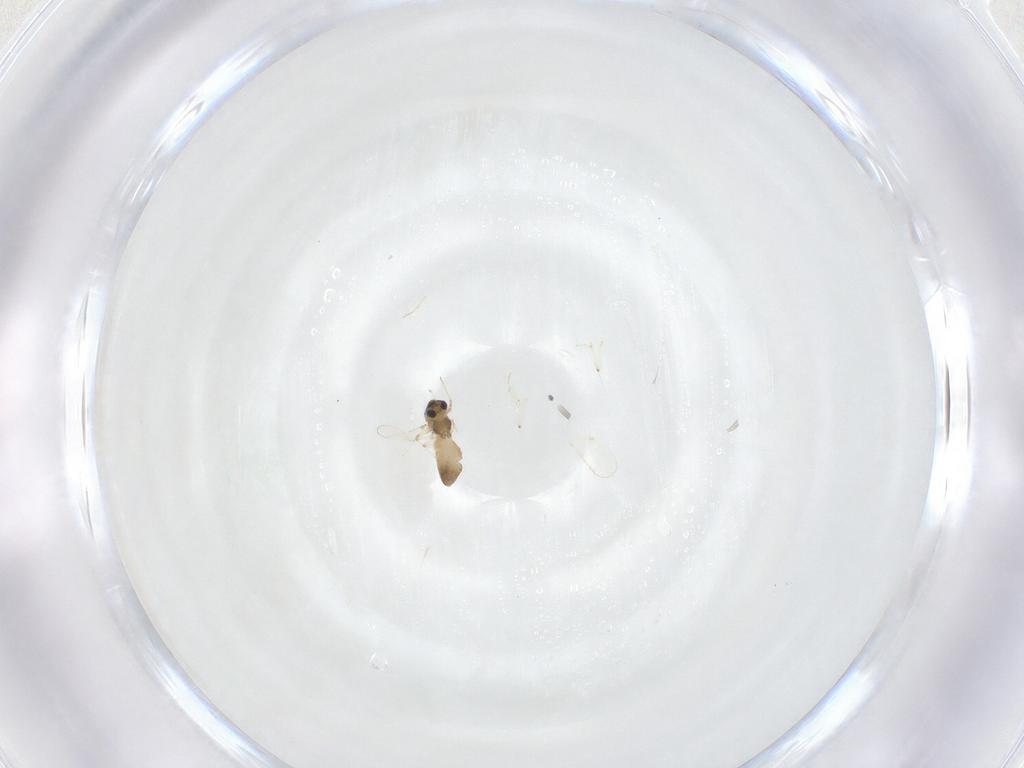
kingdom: Animalia
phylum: Arthropoda
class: Insecta
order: Diptera
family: Chironomidae
